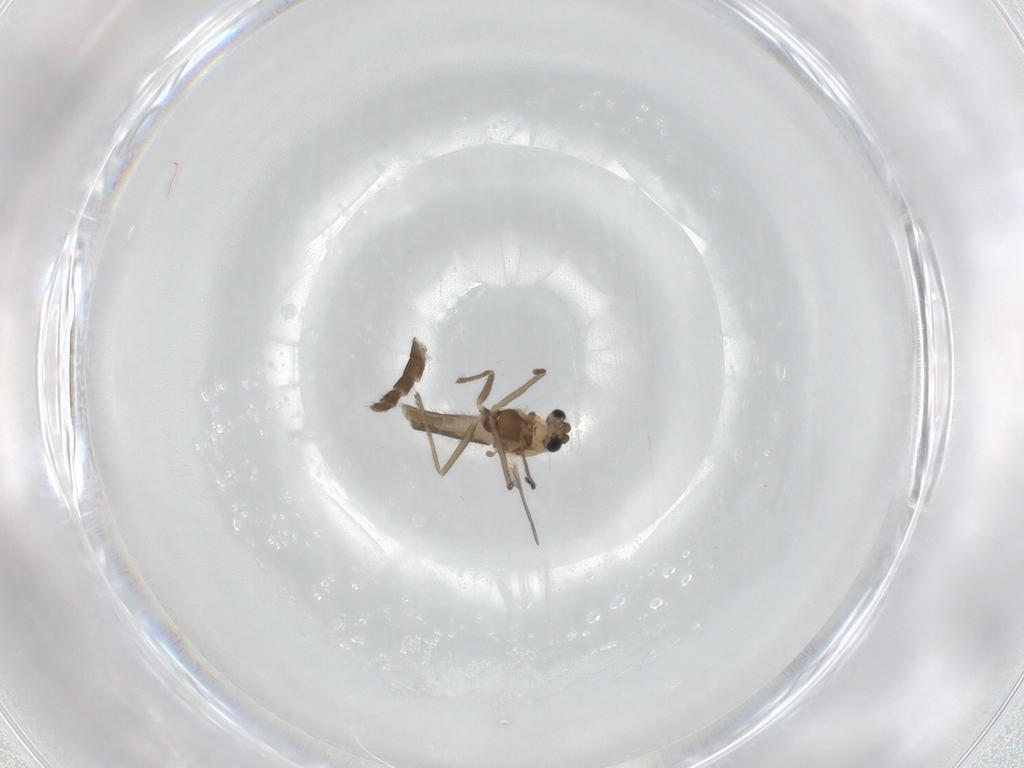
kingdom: Animalia
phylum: Arthropoda
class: Insecta
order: Diptera
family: Chironomidae
